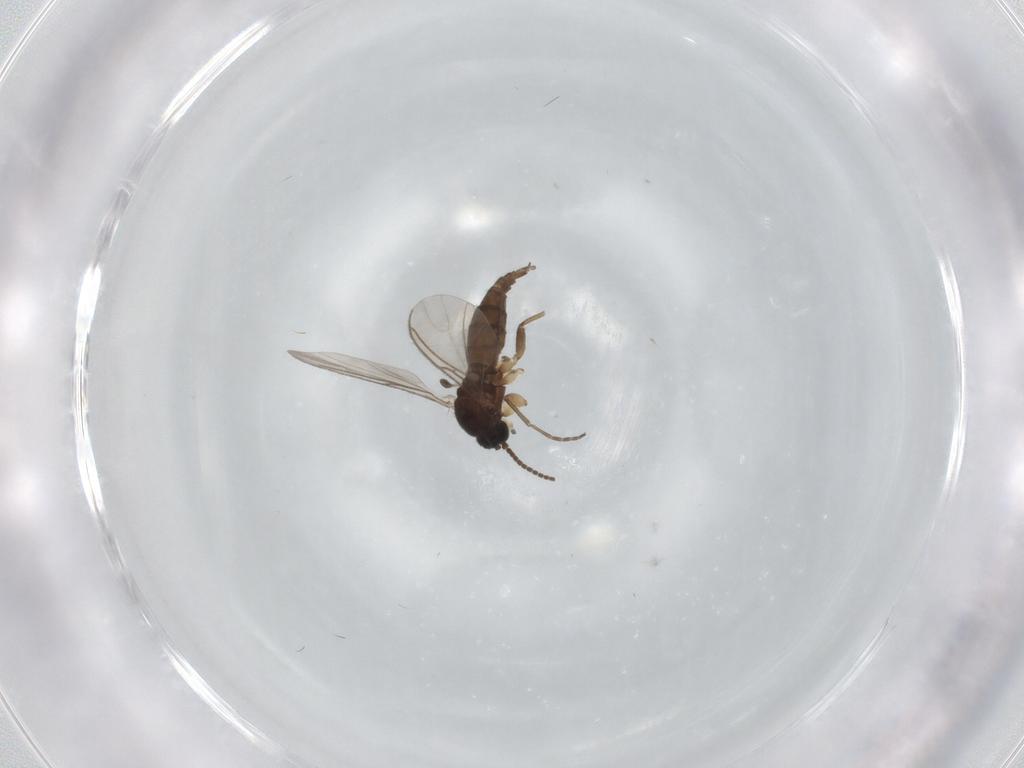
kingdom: Animalia
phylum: Arthropoda
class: Insecta
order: Diptera
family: Sciaridae
